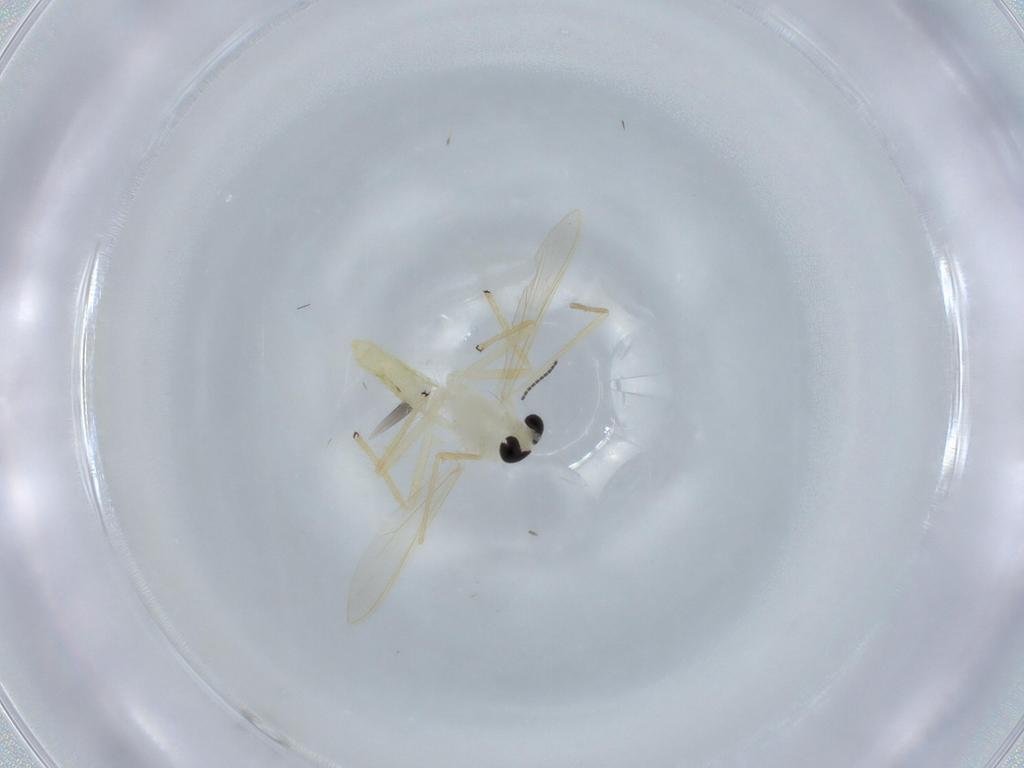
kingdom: Animalia
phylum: Arthropoda
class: Insecta
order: Diptera
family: Chironomidae
